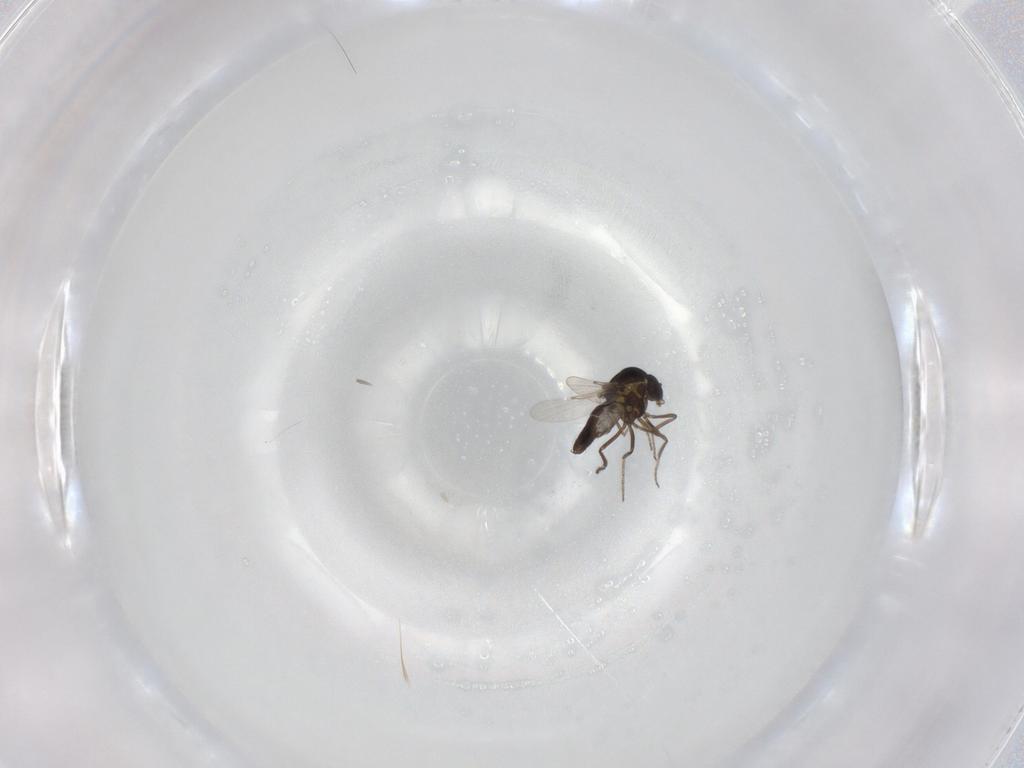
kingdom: Animalia
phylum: Arthropoda
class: Insecta
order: Diptera
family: Ceratopogonidae
